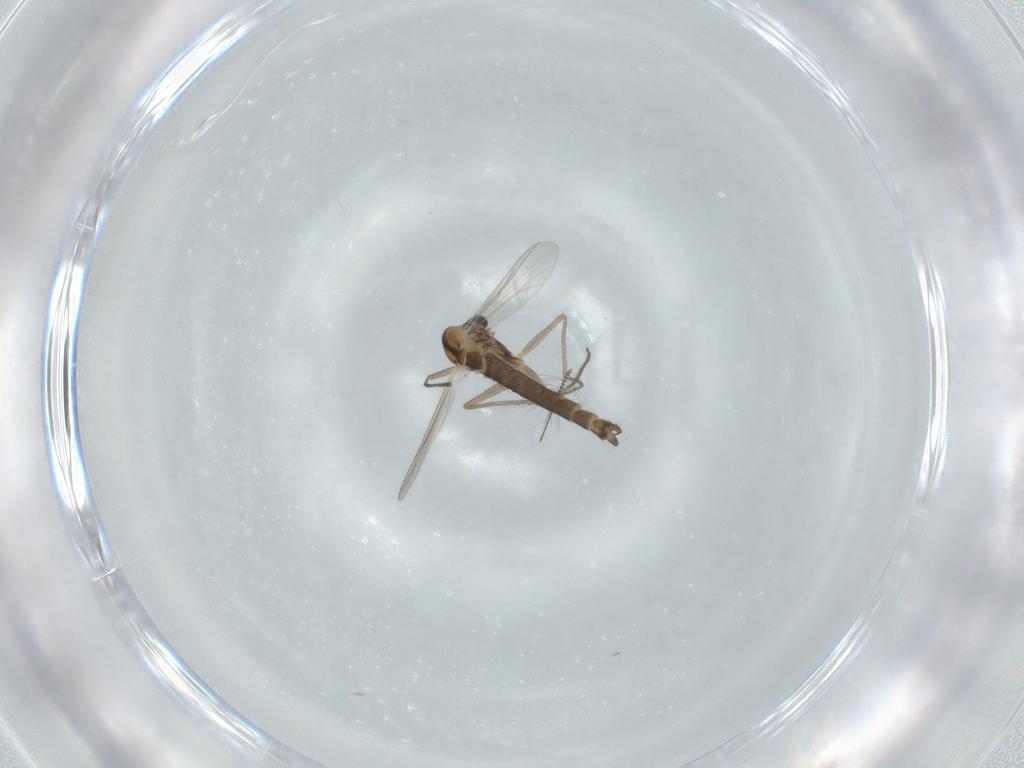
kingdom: Animalia
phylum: Arthropoda
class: Insecta
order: Diptera
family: Chironomidae
